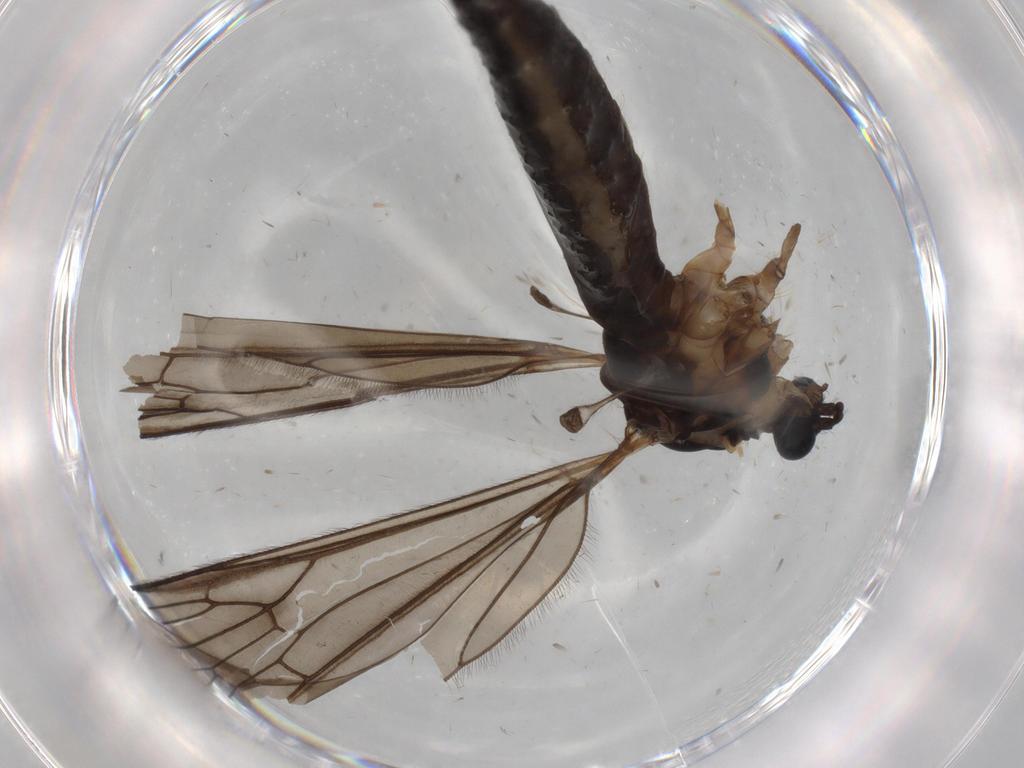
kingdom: Animalia
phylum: Arthropoda
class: Insecta
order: Diptera
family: Cecidomyiidae
